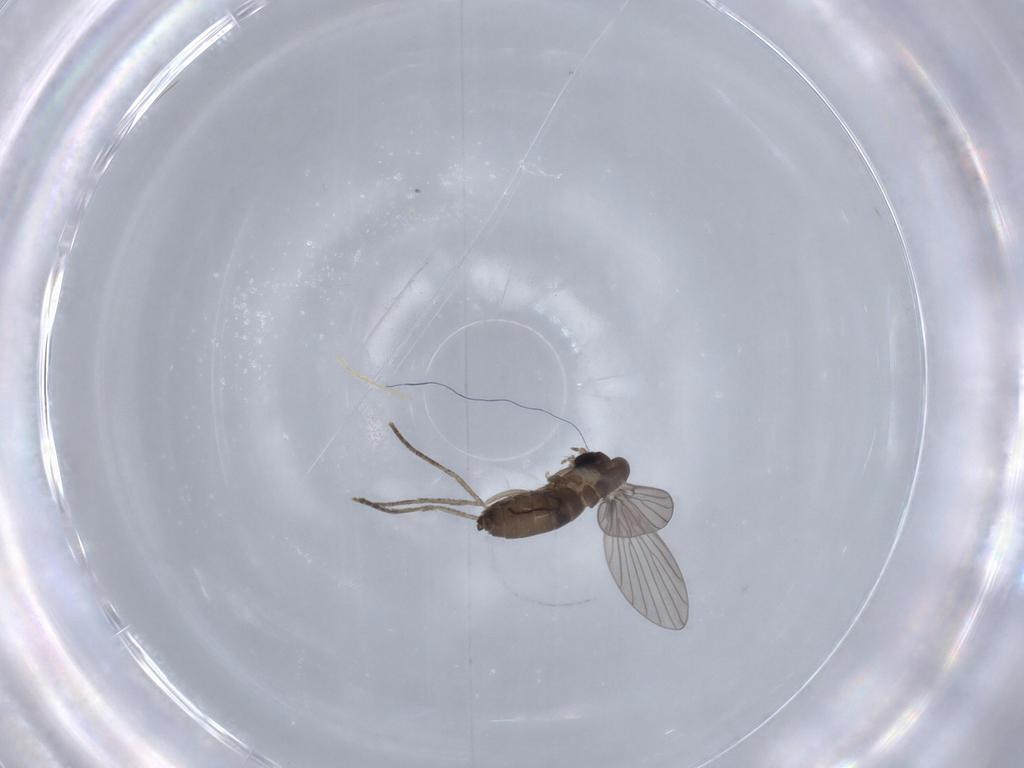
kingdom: Animalia
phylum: Arthropoda
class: Insecta
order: Diptera
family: Psychodidae
